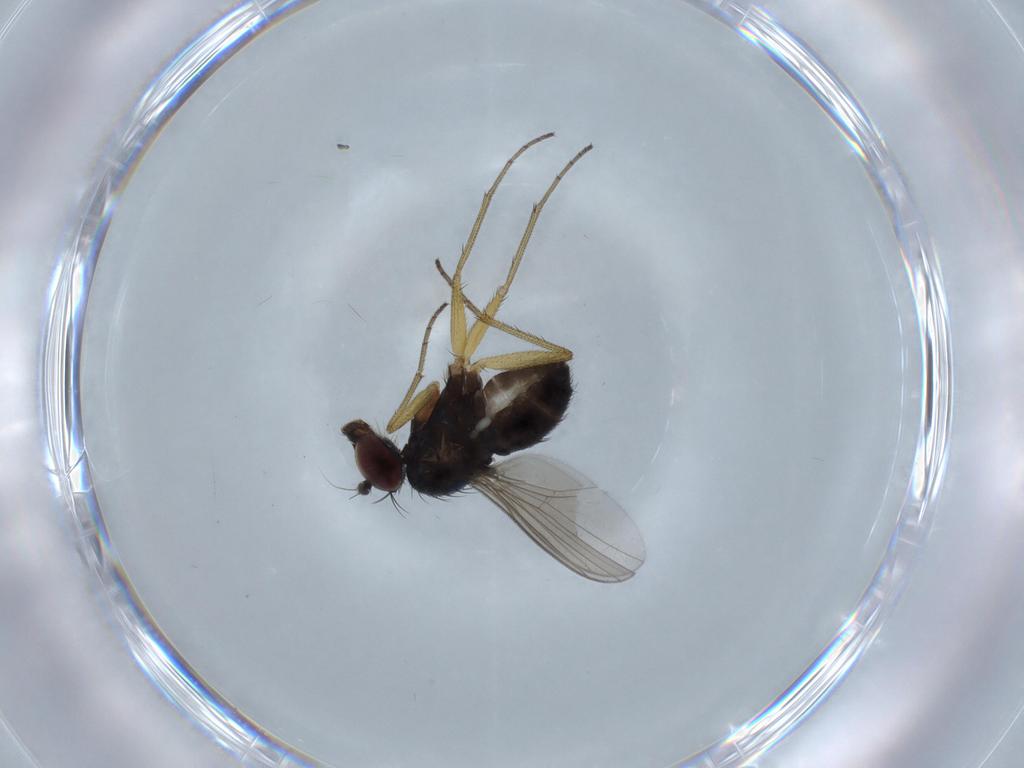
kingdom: Animalia
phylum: Arthropoda
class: Insecta
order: Diptera
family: Dolichopodidae
